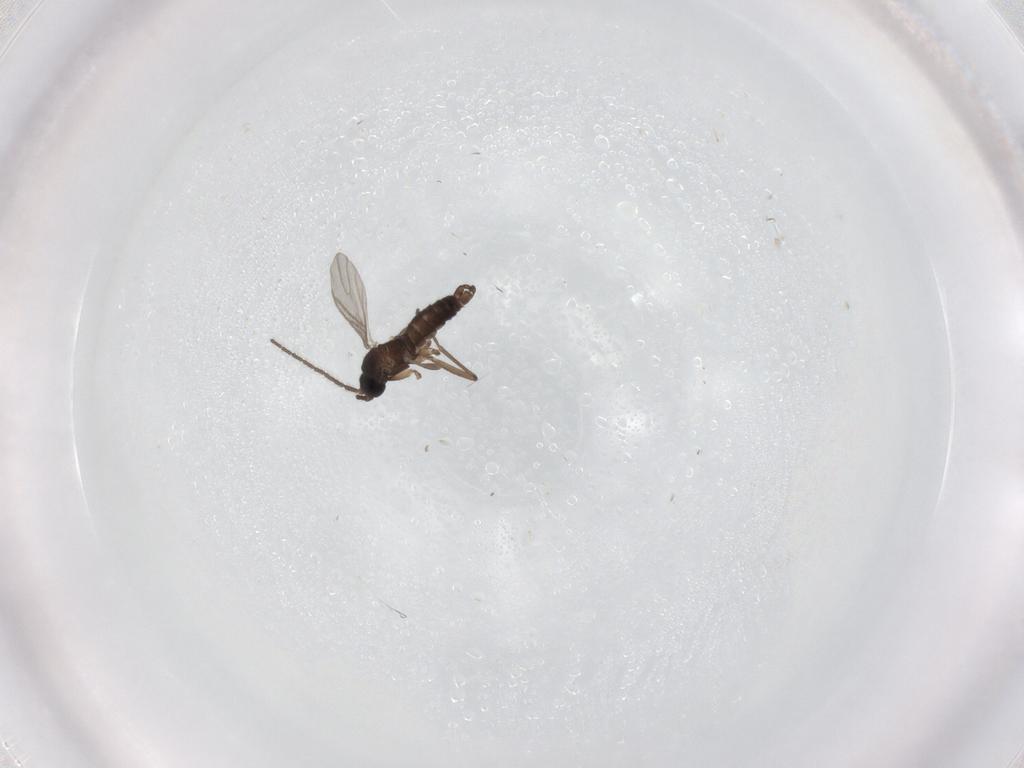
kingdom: Animalia
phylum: Arthropoda
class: Insecta
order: Diptera
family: Sciaridae
